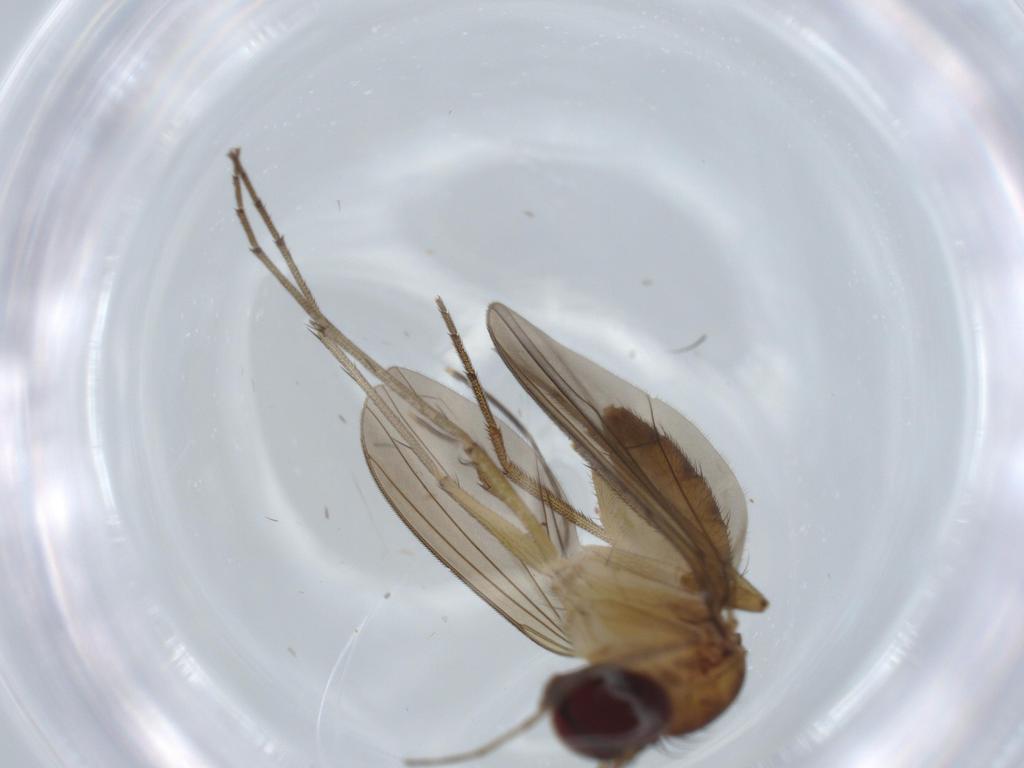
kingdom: Animalia
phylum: Arthropoda
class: Insecta
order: Diptera
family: Dolichopodidae
